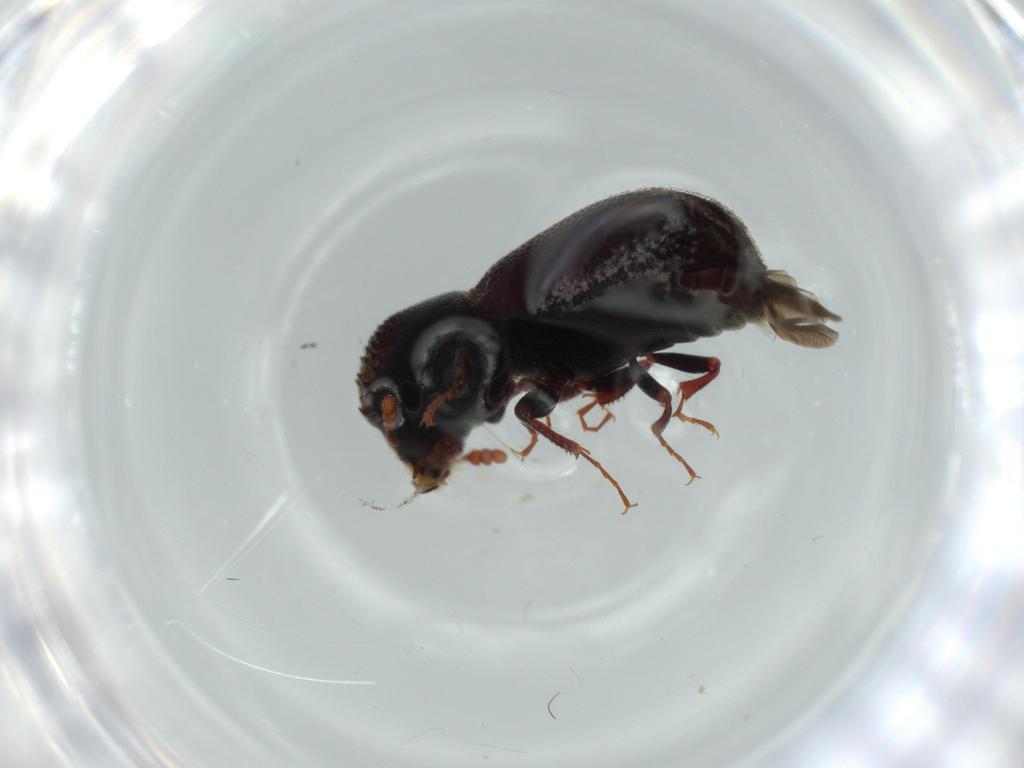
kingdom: Animalia
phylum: Arthropoda
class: Insecta
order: Coleoptera
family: Bostrichidae
